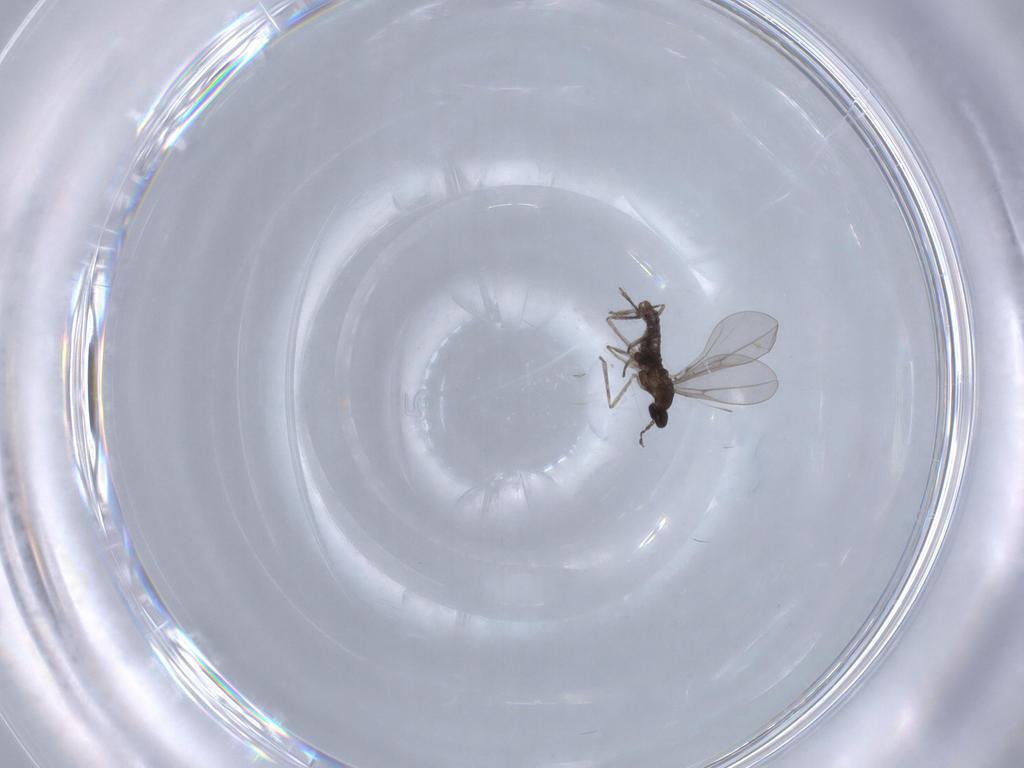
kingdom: Animalia
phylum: Arthropoda
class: Insecta
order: Diptera
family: Cecidomyiidae
